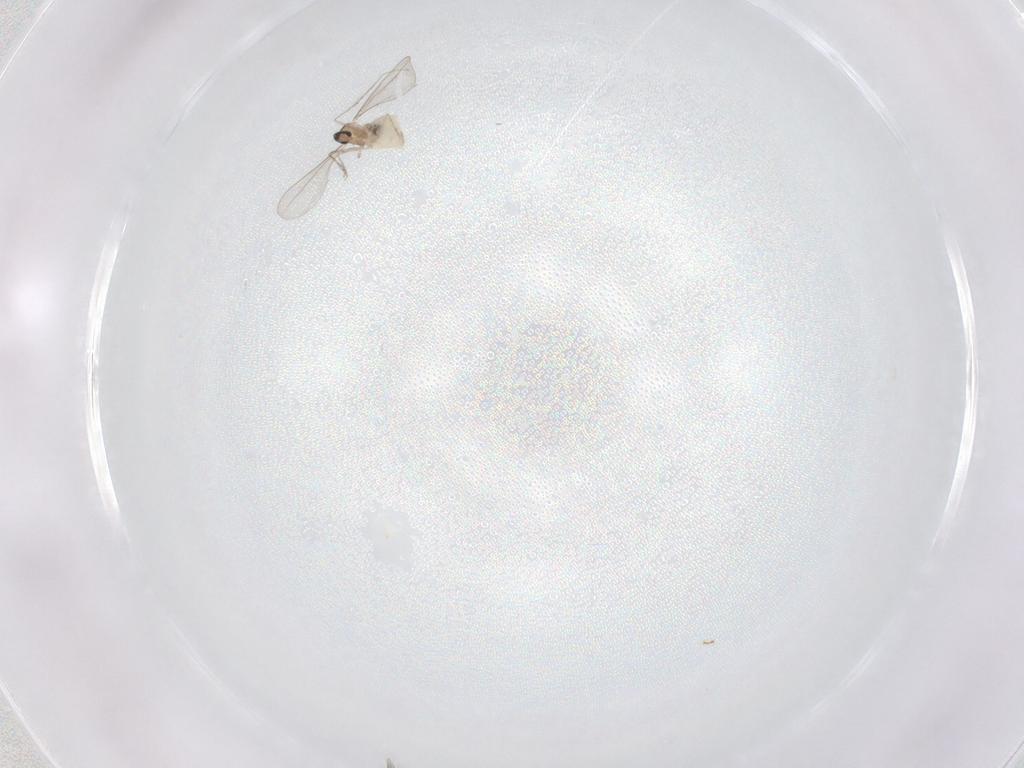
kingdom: Animalia
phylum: Arthropoda
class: Insecta
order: Diptera
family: Cecidomyiidae
